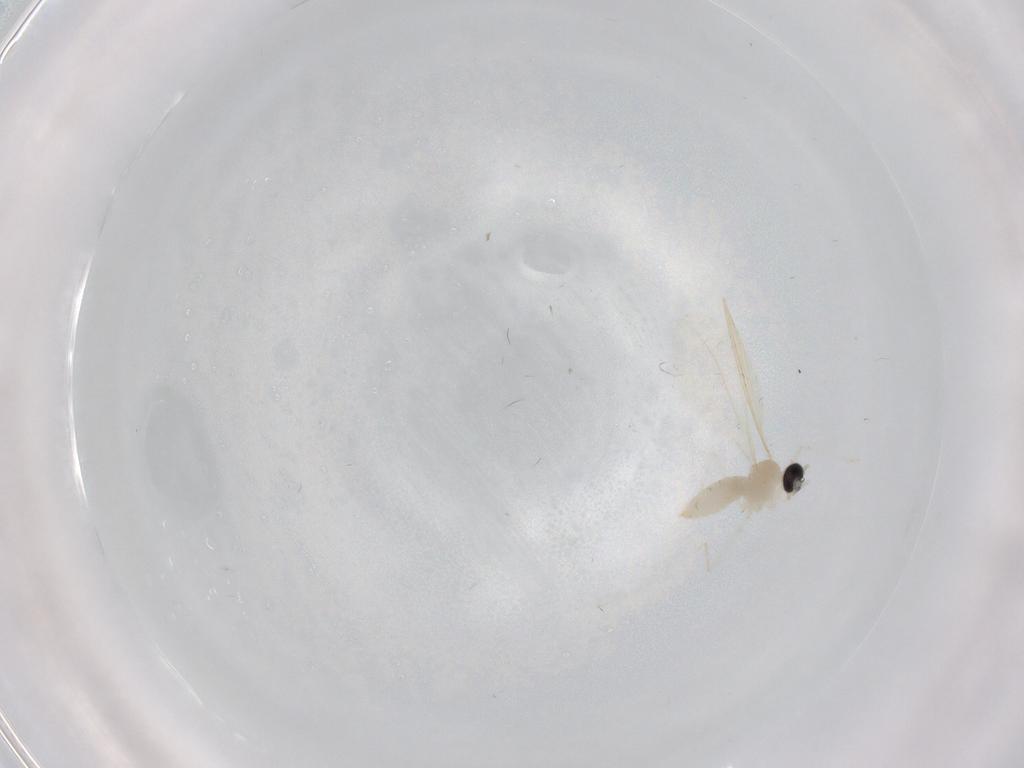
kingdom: Animalia
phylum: Arthropoda
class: Insecta
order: Diptera
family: Cecidomyiidae
